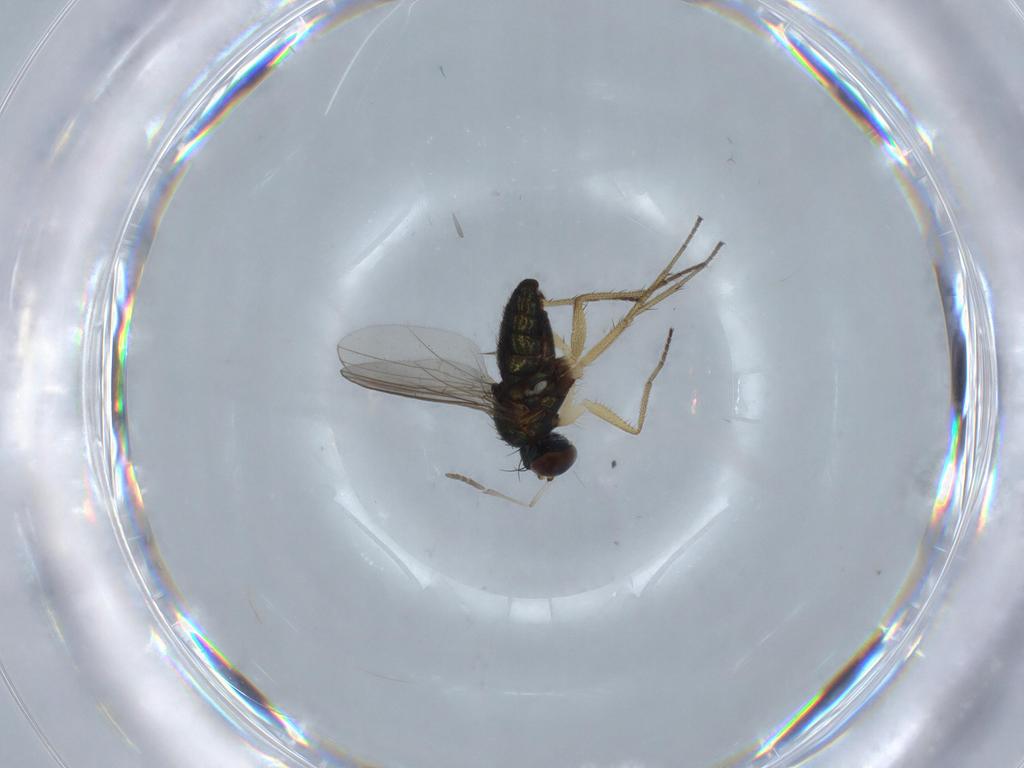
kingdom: Animalia
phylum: Arthropoda
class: Insecta
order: Diptera
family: Psychodidae
